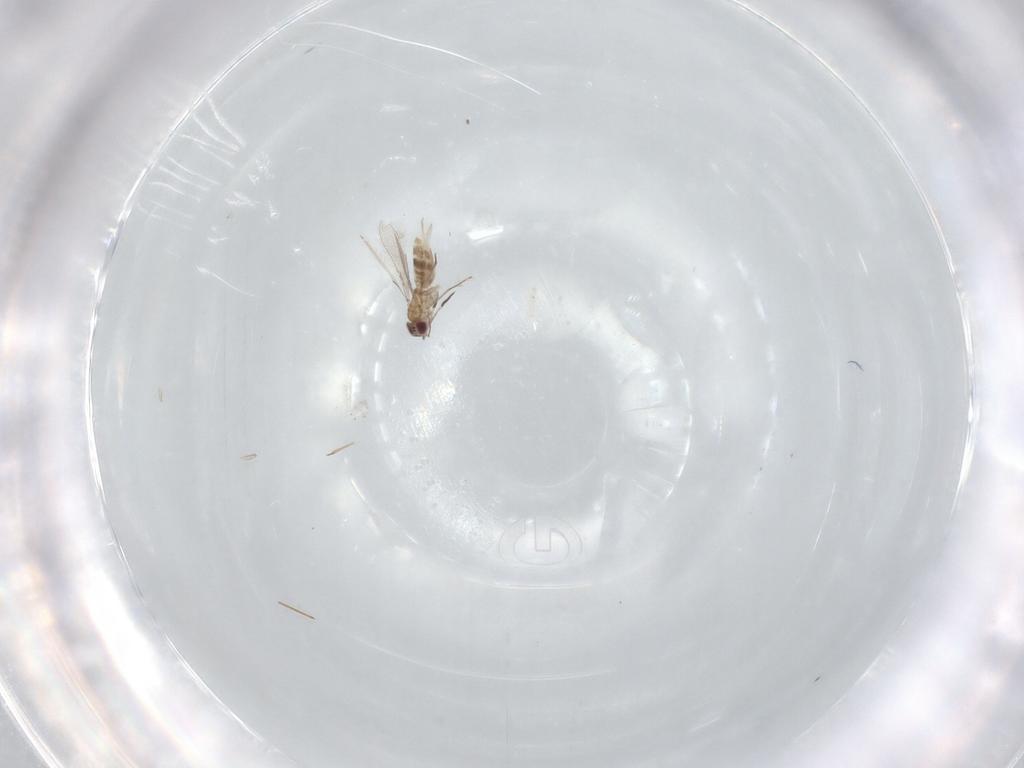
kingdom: Animalia
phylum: Arthropoda
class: Insecta
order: Hymenoptera
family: Mymaridae
